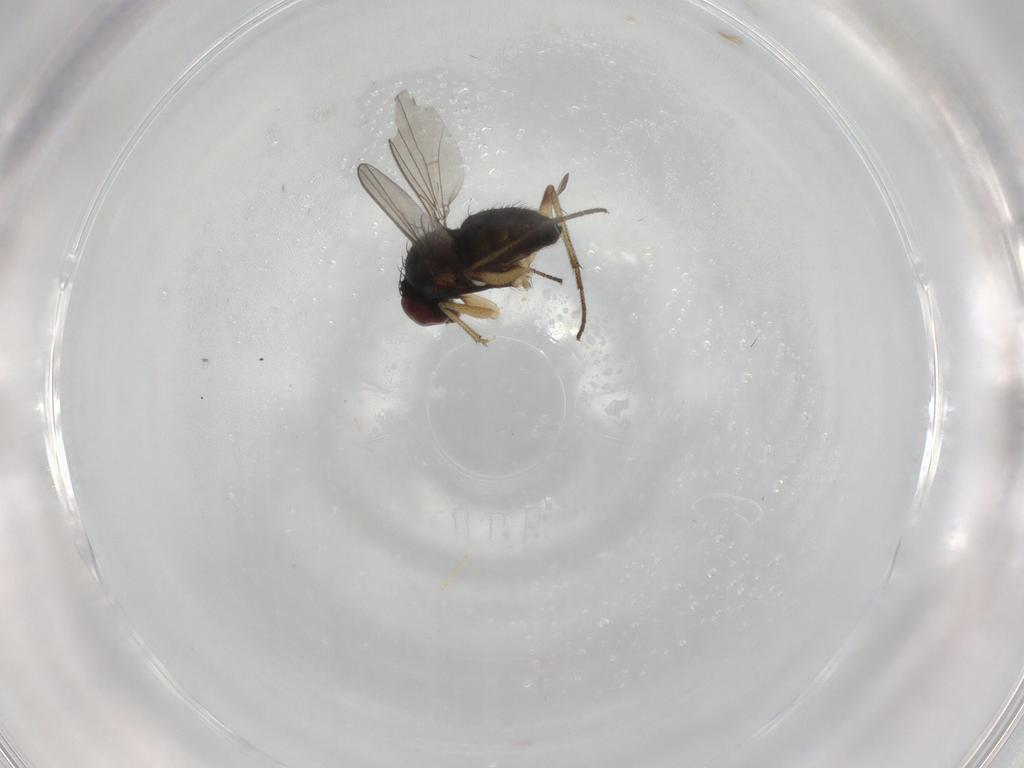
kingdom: Animalia
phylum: Arthropoda
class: Insecta
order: Diptera
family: Dolichopodidae
